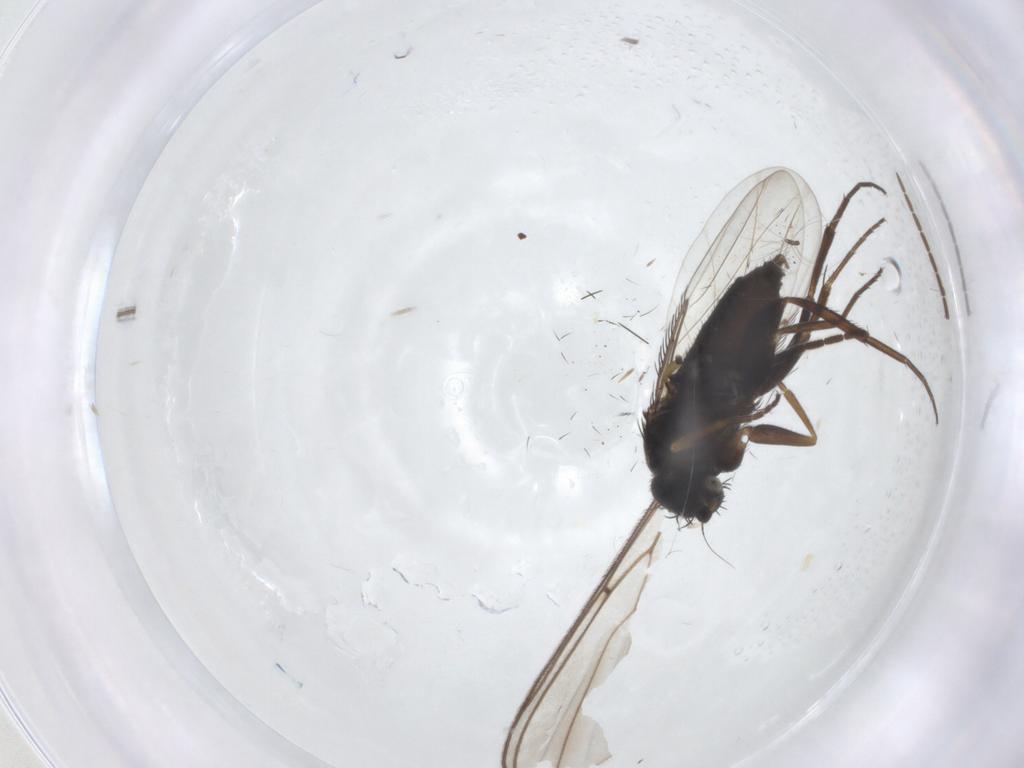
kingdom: Animalia
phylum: Arthropoda
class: Insecta
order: Diptera
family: Phoridae
